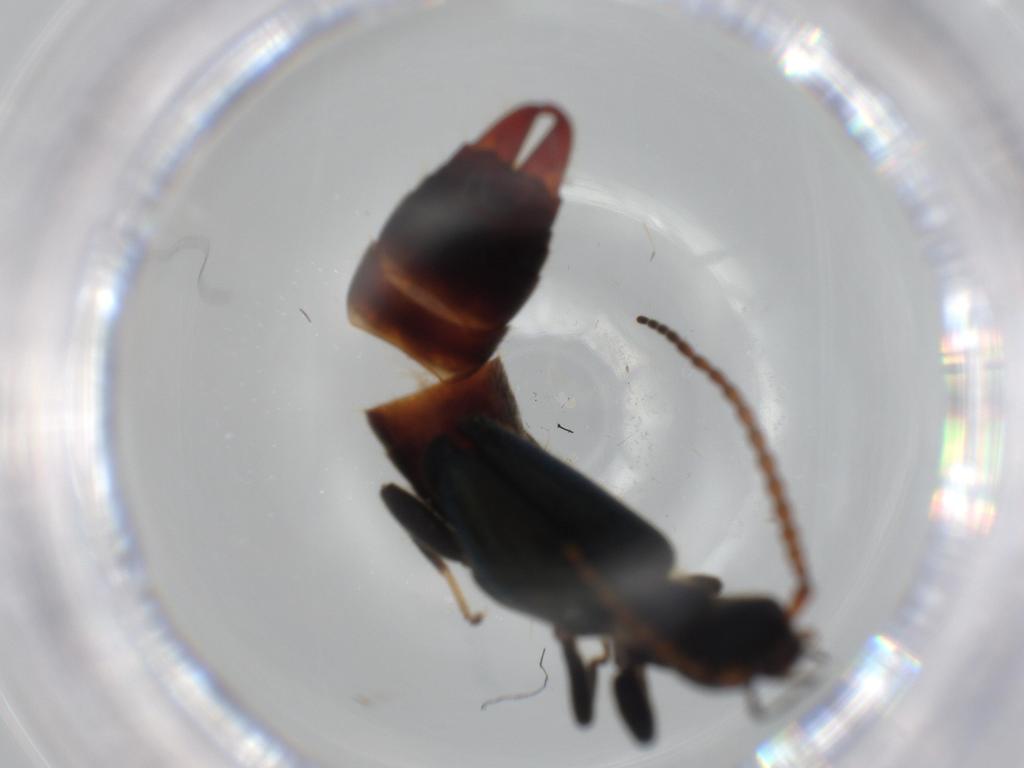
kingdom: Animalia
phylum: Arthropoda
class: Insecta
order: Dermaptera
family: Forficulidae
